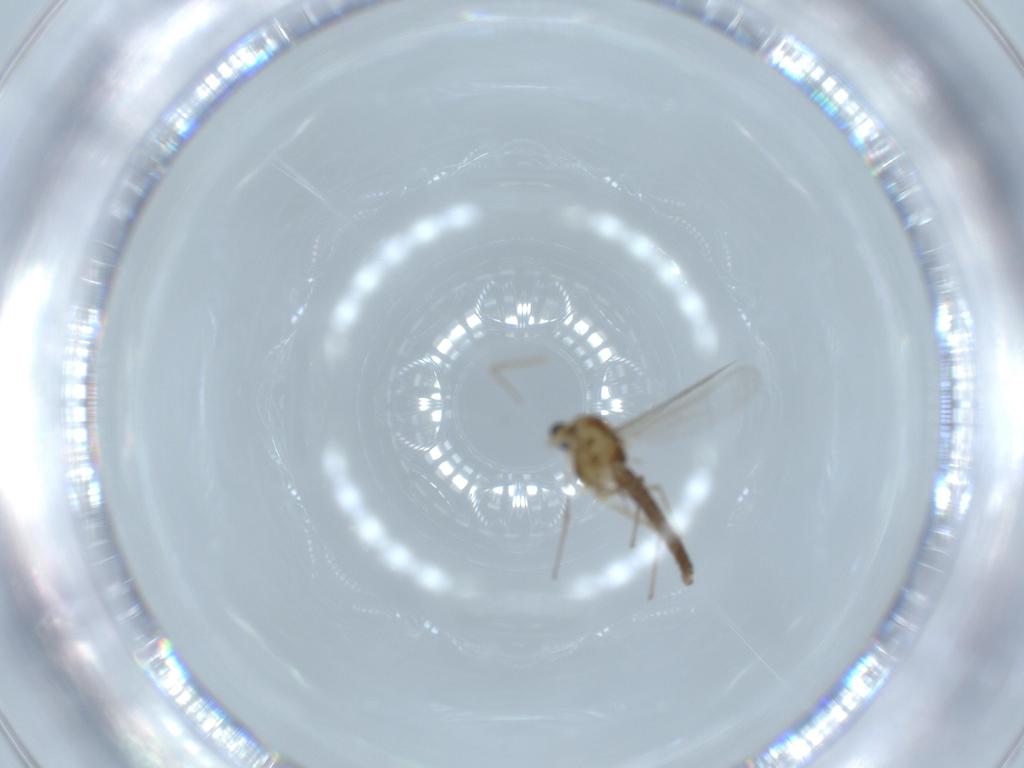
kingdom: Animalia
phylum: Arthropoda
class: Insecta
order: Diptera
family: Chironomidae
